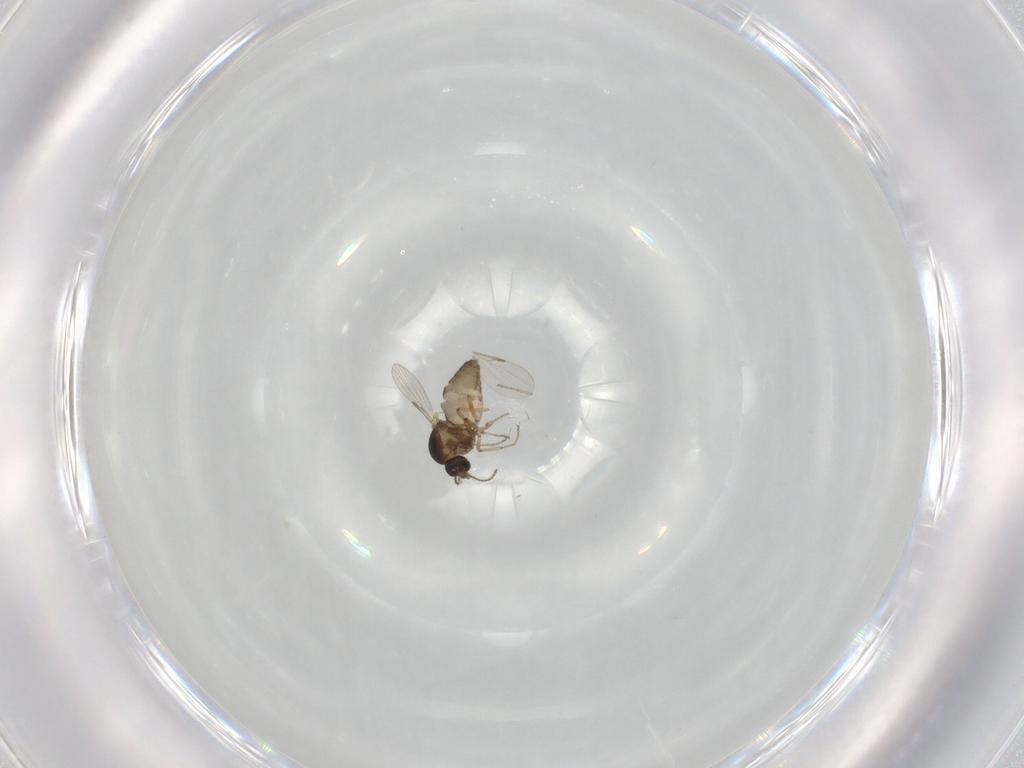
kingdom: Animalia
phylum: Arthropoda
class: Insecta
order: Diptera
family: Ceratopogonidae
